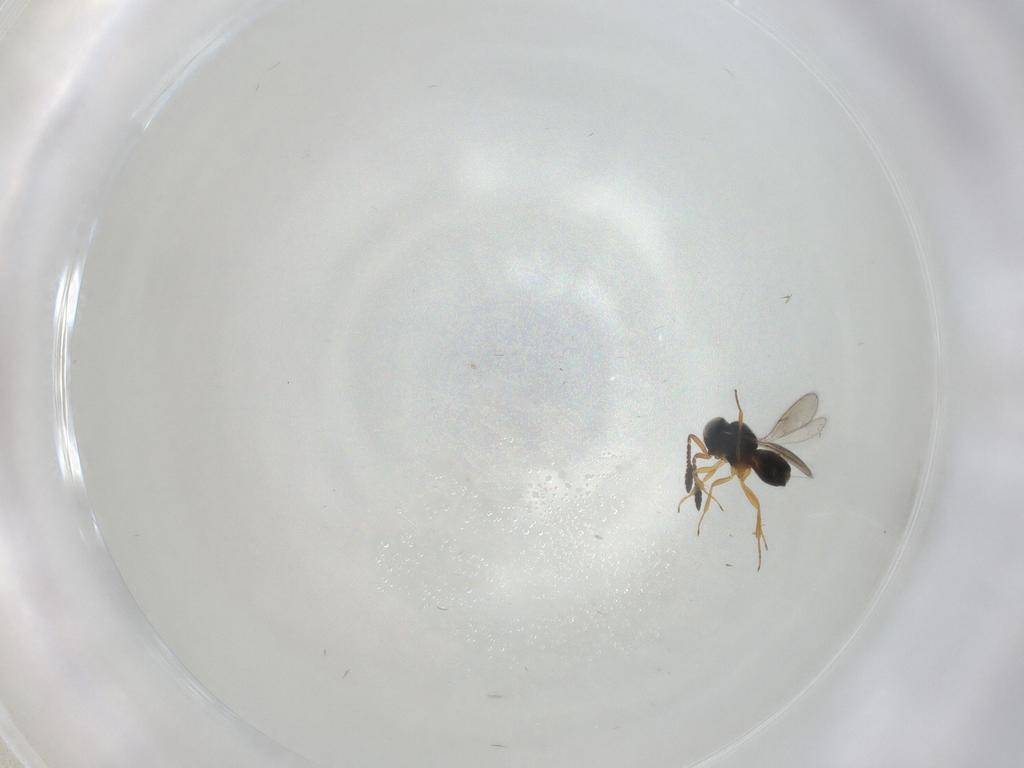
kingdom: Animalia
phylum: Arthropoda
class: Insecta
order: Hymenoptera
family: Scelionidae
